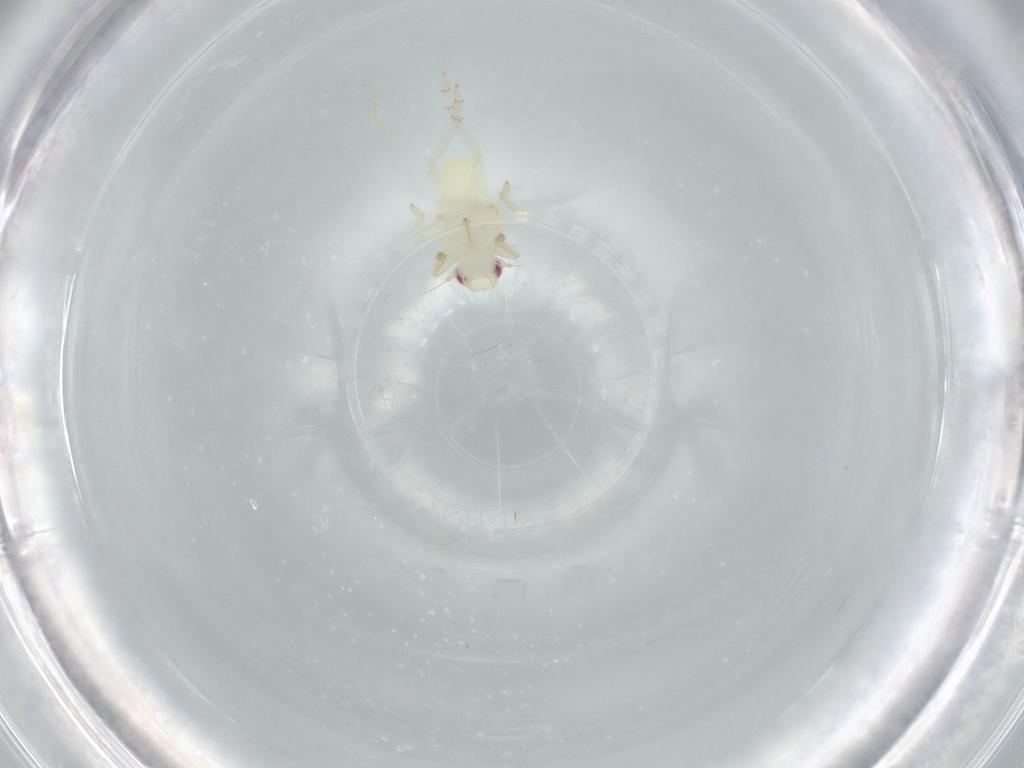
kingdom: Animalia
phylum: Arthropoda
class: Insecta
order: Hemiptera
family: Tropiduchidae
